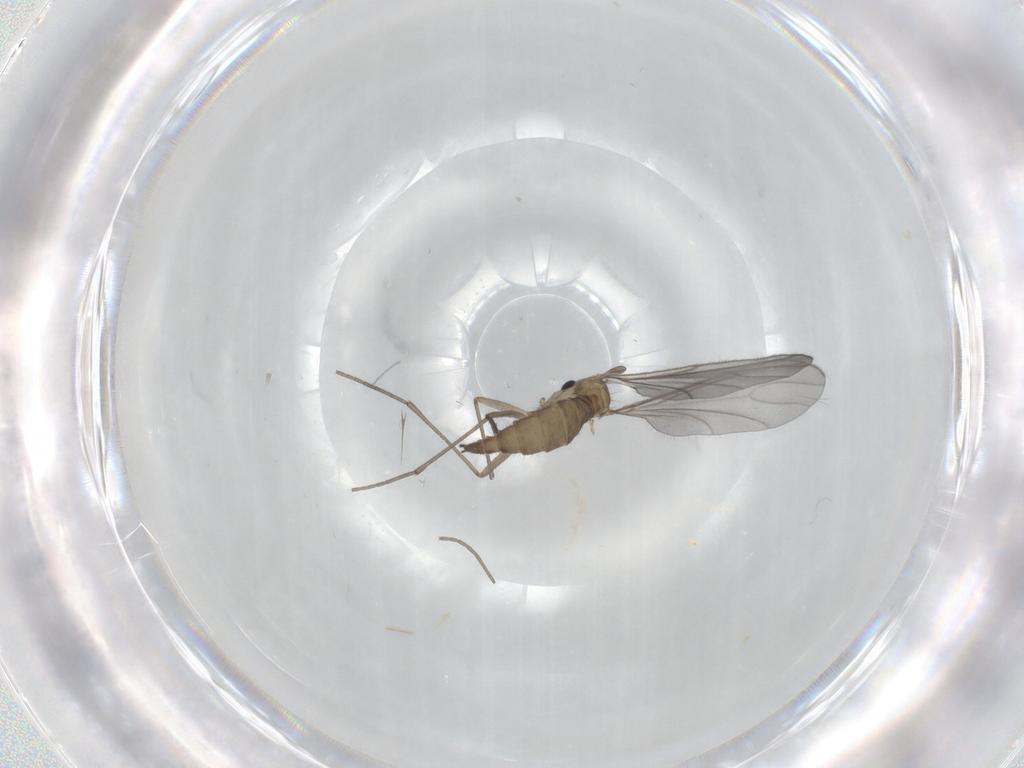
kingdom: Animalia
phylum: Arthropoda
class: Insecta
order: Diptera
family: Sciaridae
